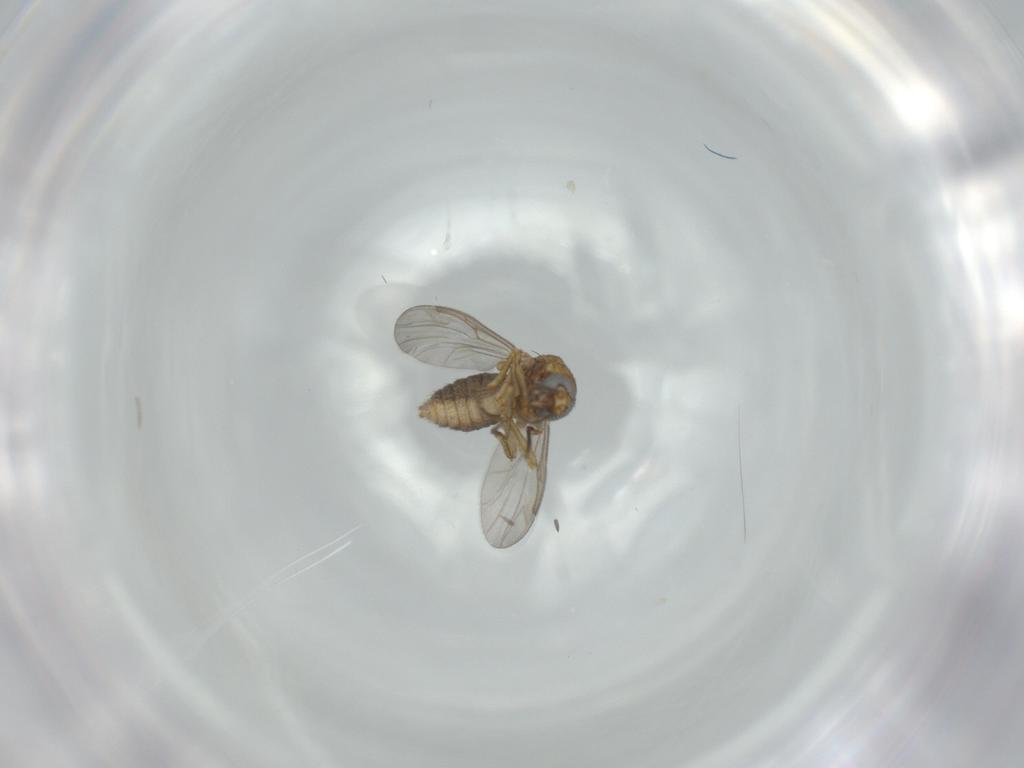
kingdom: Animalia
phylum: Arthropoda
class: Insecta
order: Diptera
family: Ceratopogonidae
